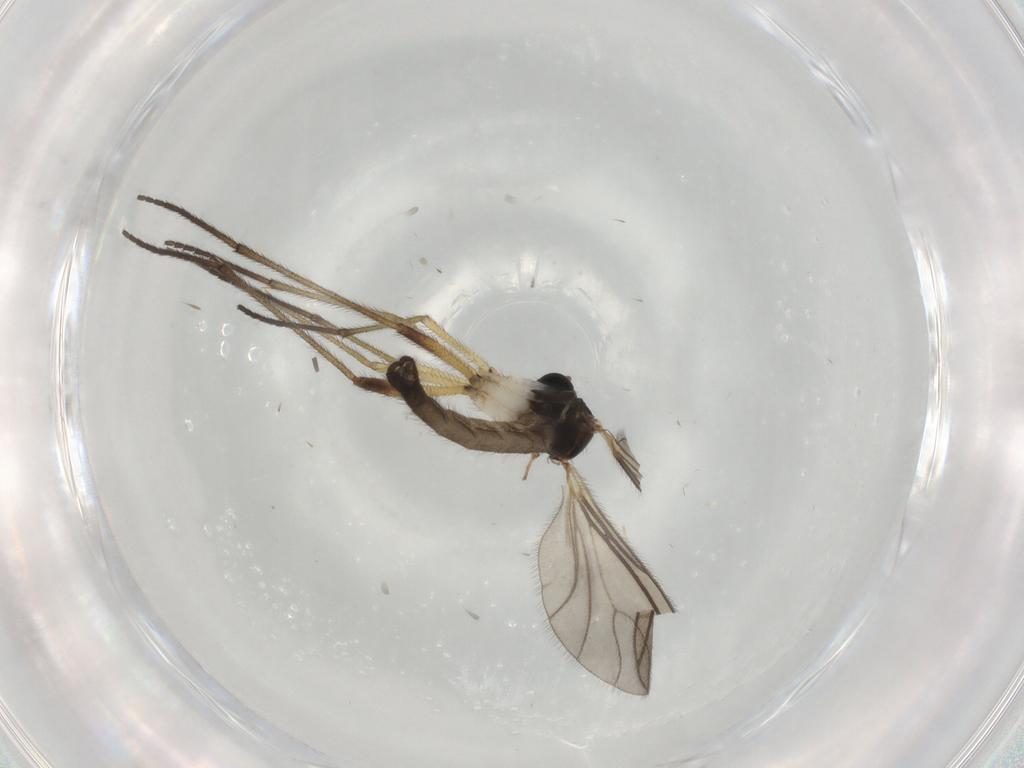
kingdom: Animalia
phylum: Arthropoda
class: Insecta
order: Diptera
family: Sciaridae
